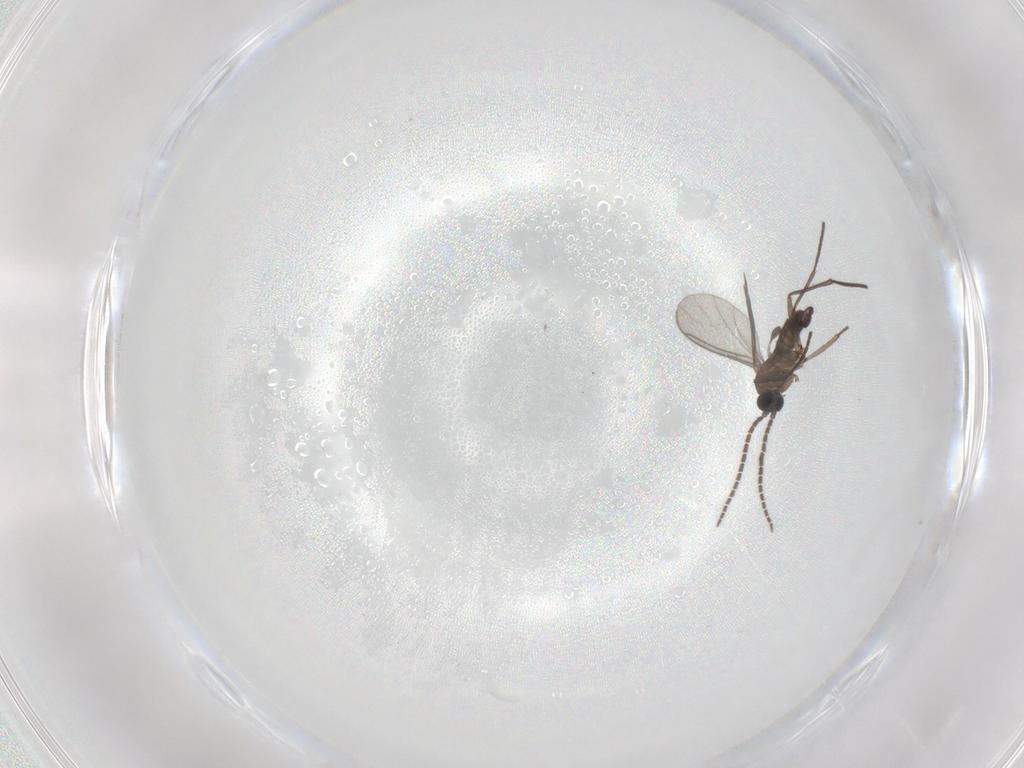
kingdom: Animalia
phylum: Arthropoda
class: Insecta
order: Diptera
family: Sciaridae
